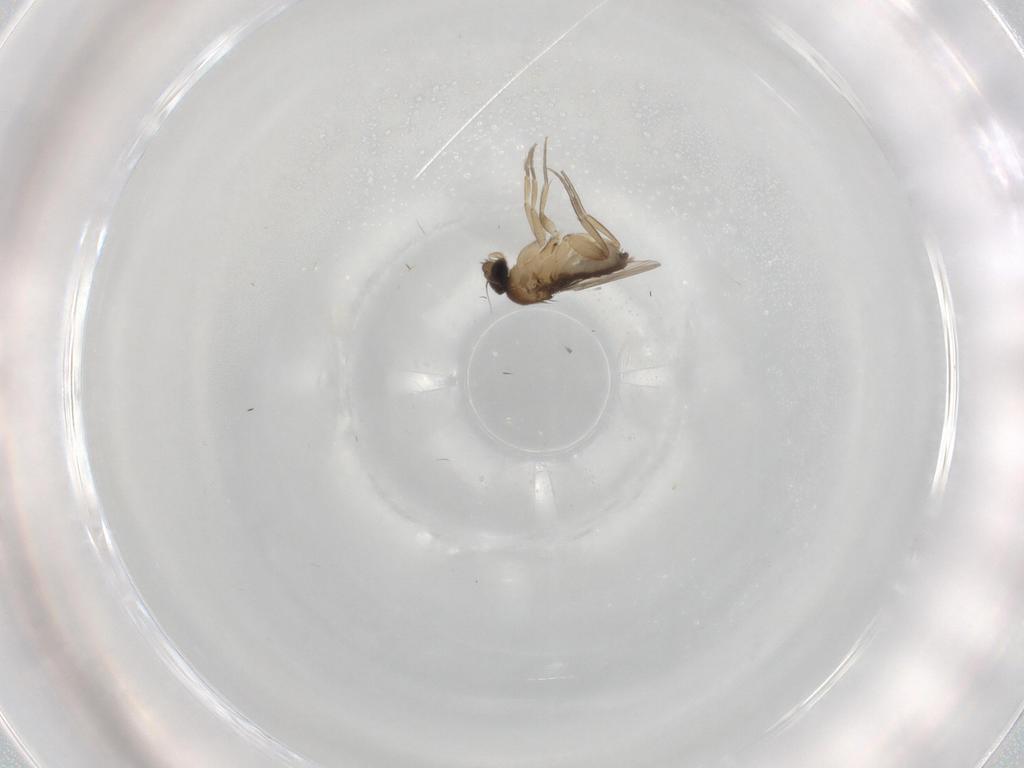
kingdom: Animalia
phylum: Arthropoda
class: Insecta
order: Diptera
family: Phoridae
